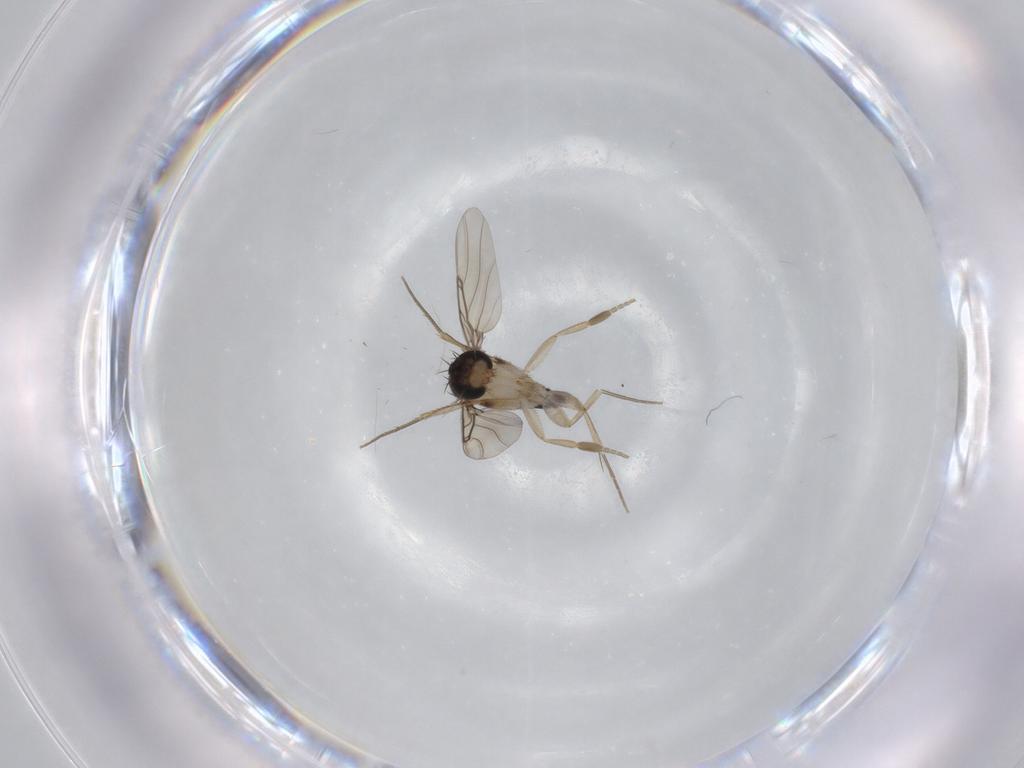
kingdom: Animalia
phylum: Arthropoda
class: Insecta
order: Diptera
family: Phoridae
